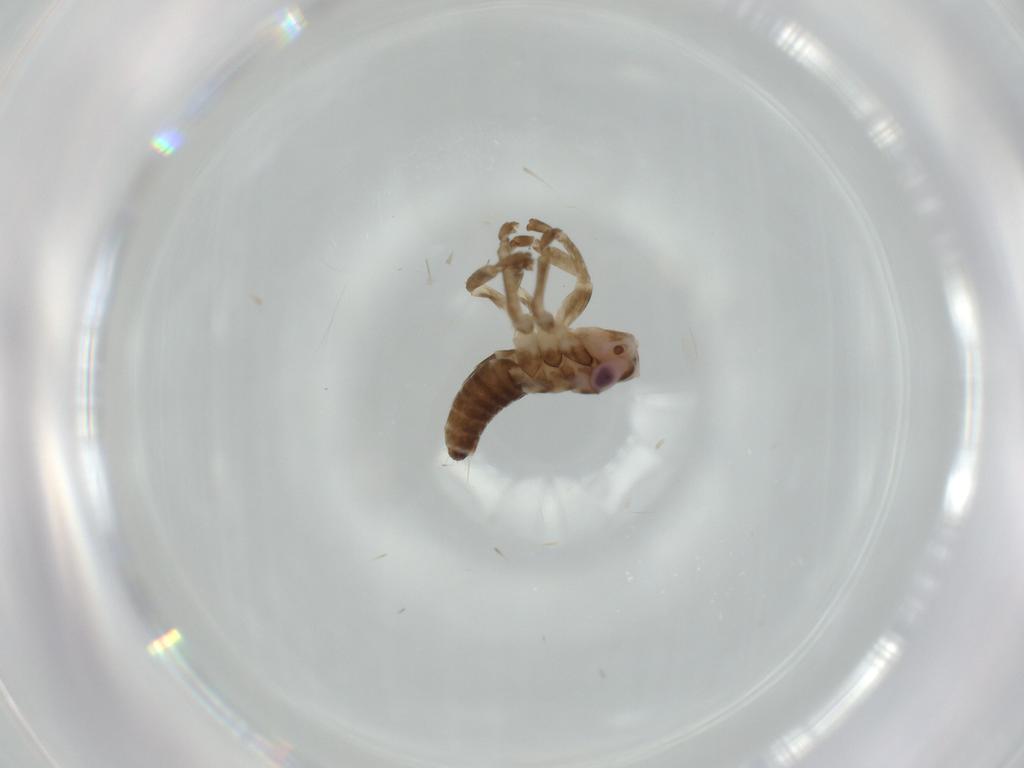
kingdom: Animalia
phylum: Arthropoda
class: Insecta
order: Hemiptera
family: Cicadellidae
